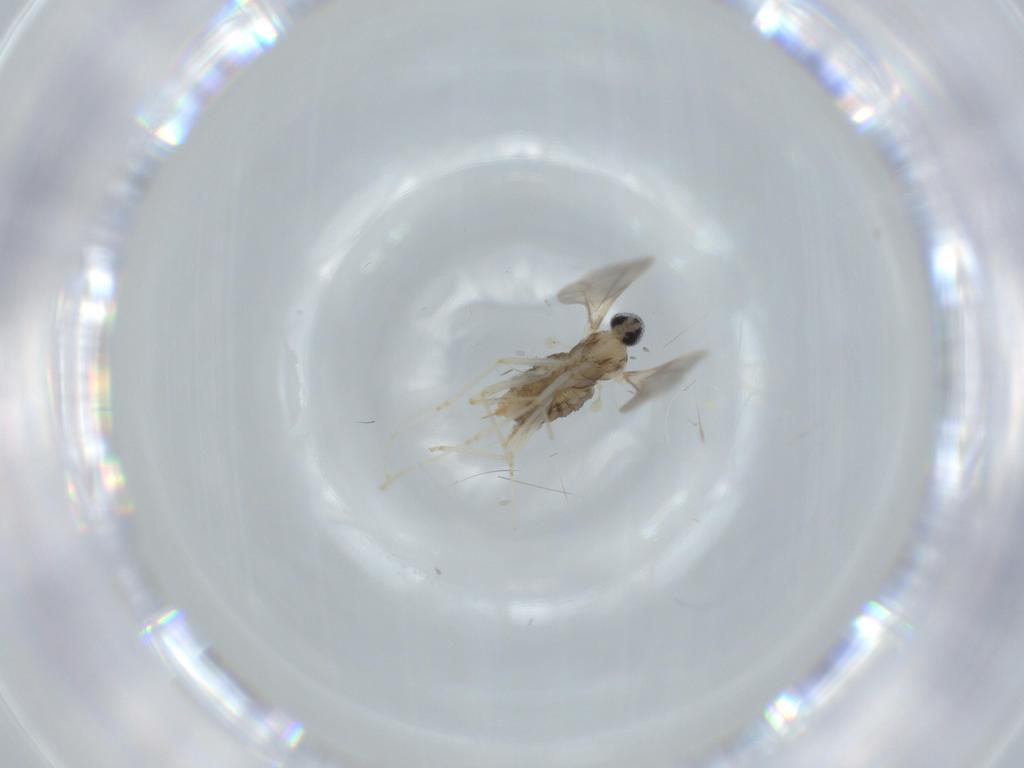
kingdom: Animalia
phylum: Arthropoda
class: Insecta
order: Diptera
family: Cecidomyiidae
